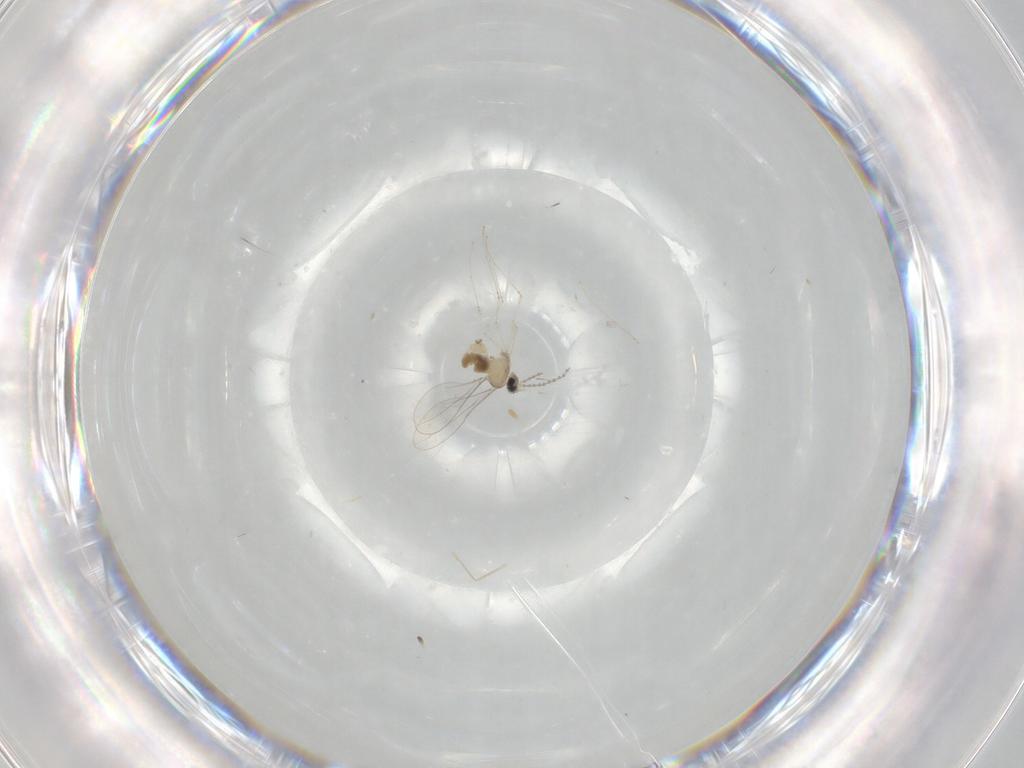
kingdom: Animalia
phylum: Arthropoda
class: Insecta
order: Diptera
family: Cecidomyiidae
